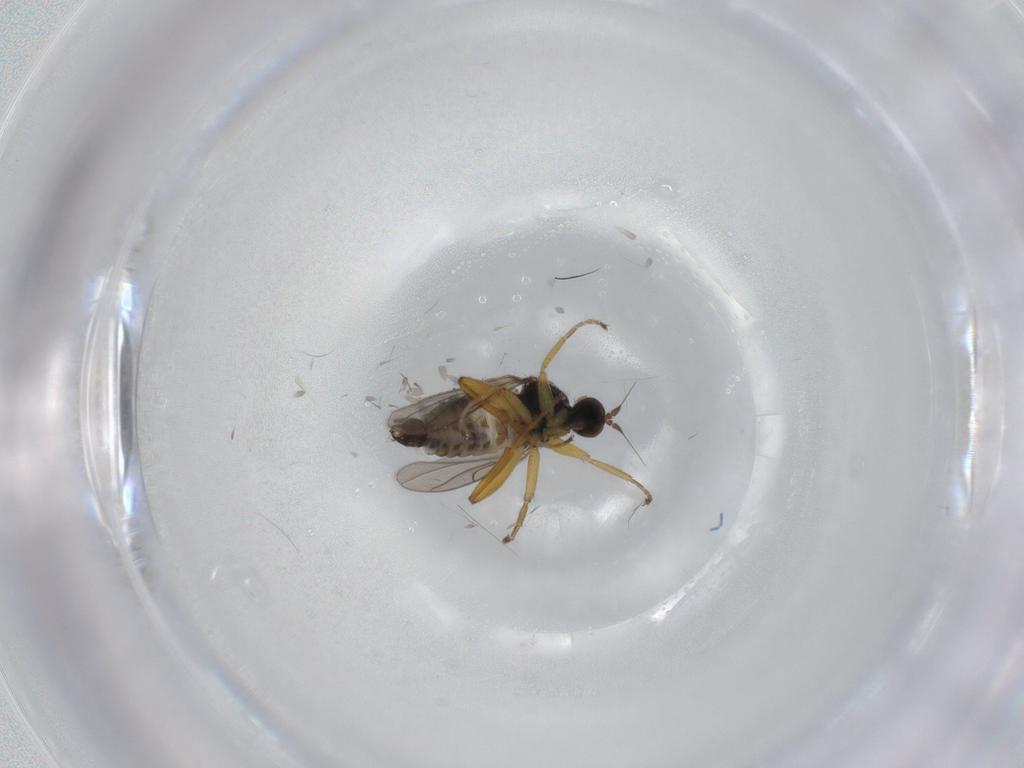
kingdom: Animalia
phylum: Arthropoda
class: Insecta
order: Diptera
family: Hybotidae
